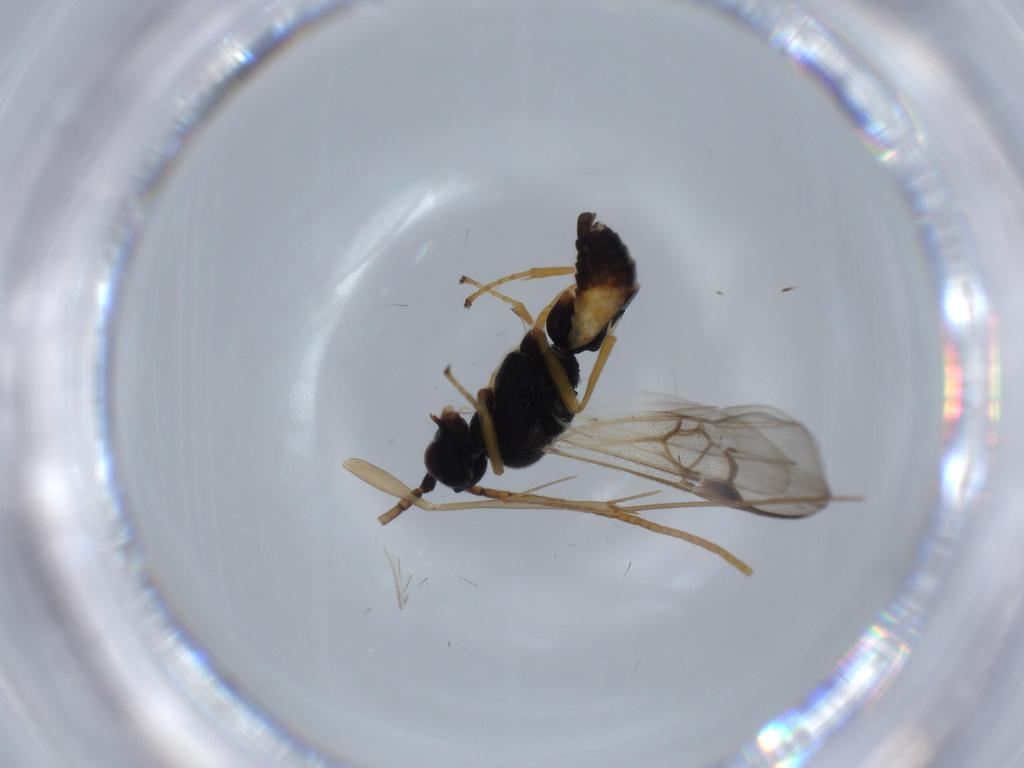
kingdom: Animalia
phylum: Arthropoda
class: Insecta
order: Hymenoptera
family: Braconidae
